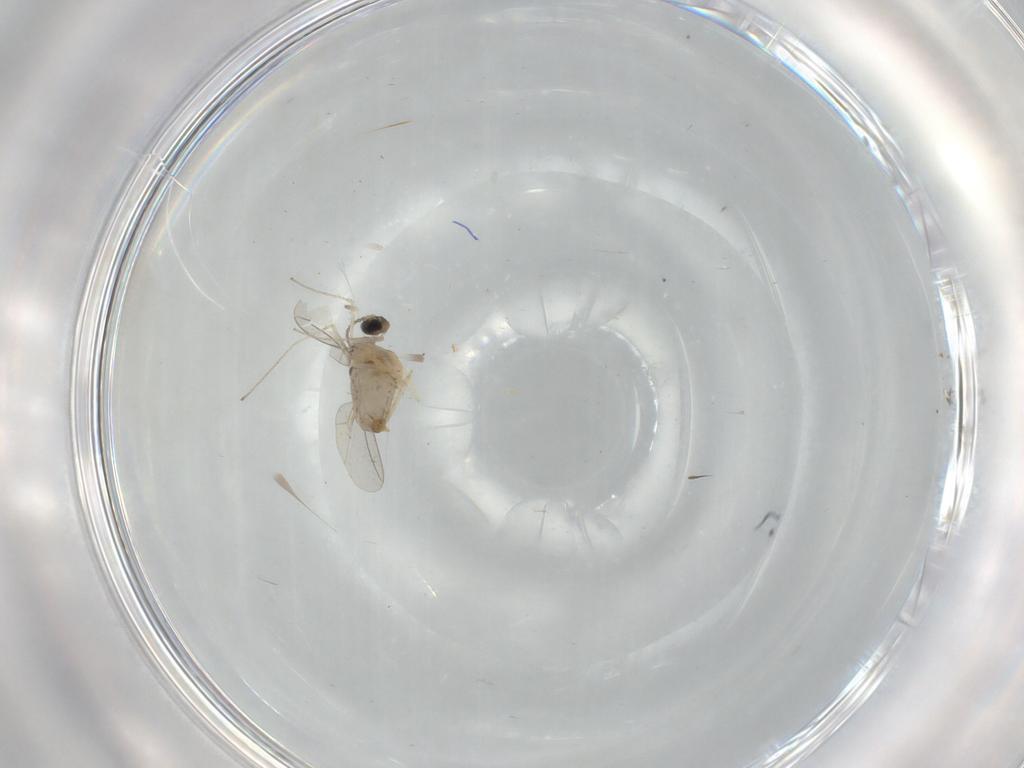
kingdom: Animalia
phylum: Arthropoda
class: Insecta
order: Diptera
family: Cecidomyiidae
